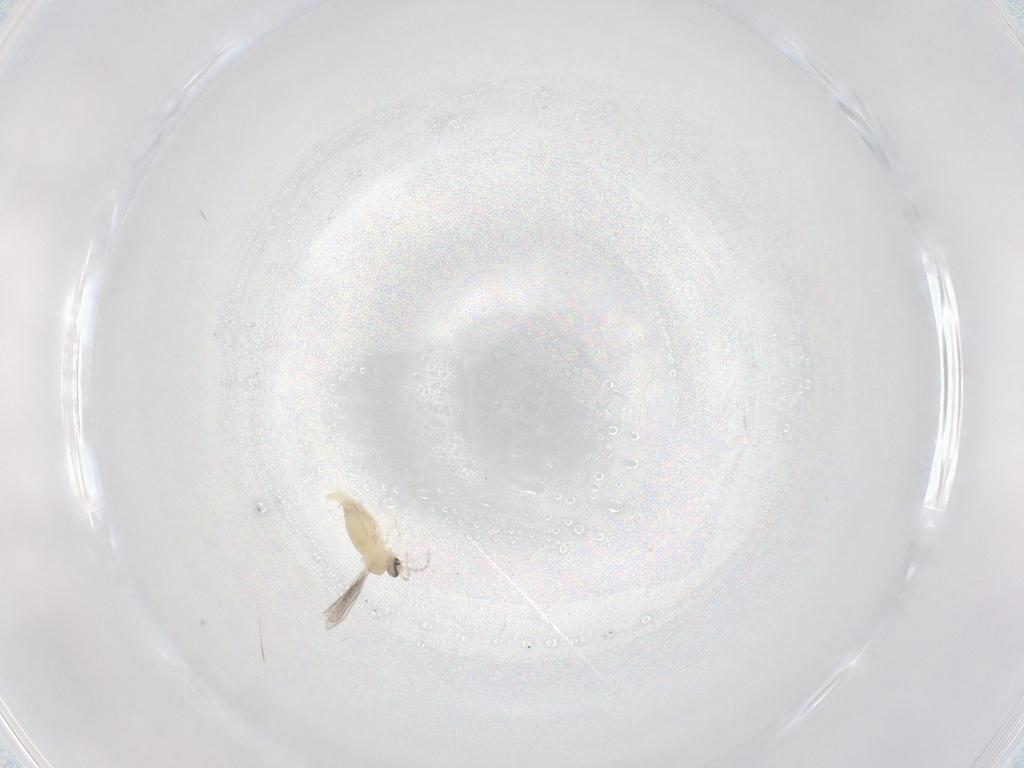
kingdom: Animalia
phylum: Arthropoda
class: Insecta
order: Diptera
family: Cecidomyiidae
